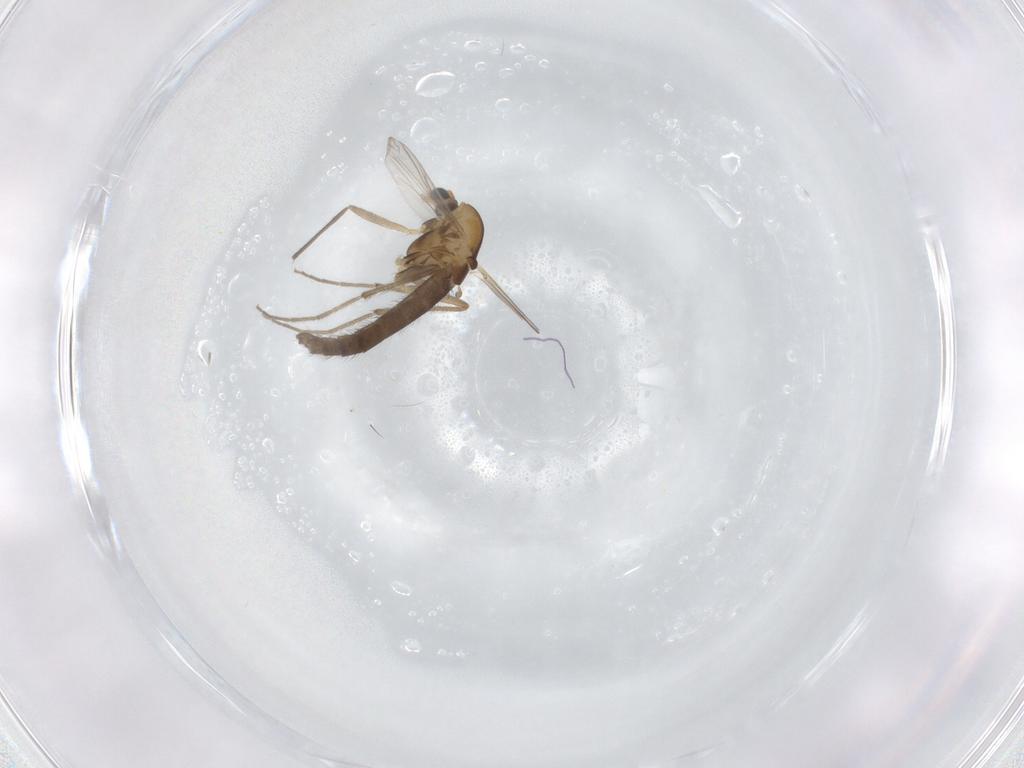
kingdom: Animalia
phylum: Arthropoda
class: Insecta
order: Diptera
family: Chironomidae
